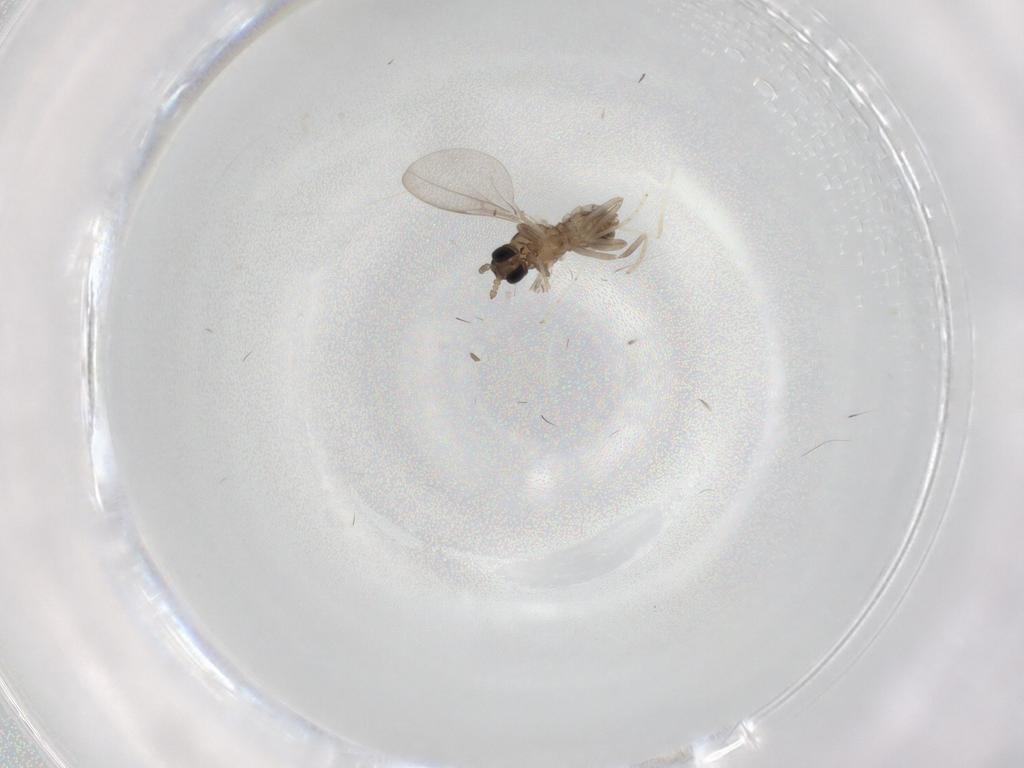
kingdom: Animalia
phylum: Arthropoda
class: Insecta
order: Diptera
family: Cecidomyiidae
